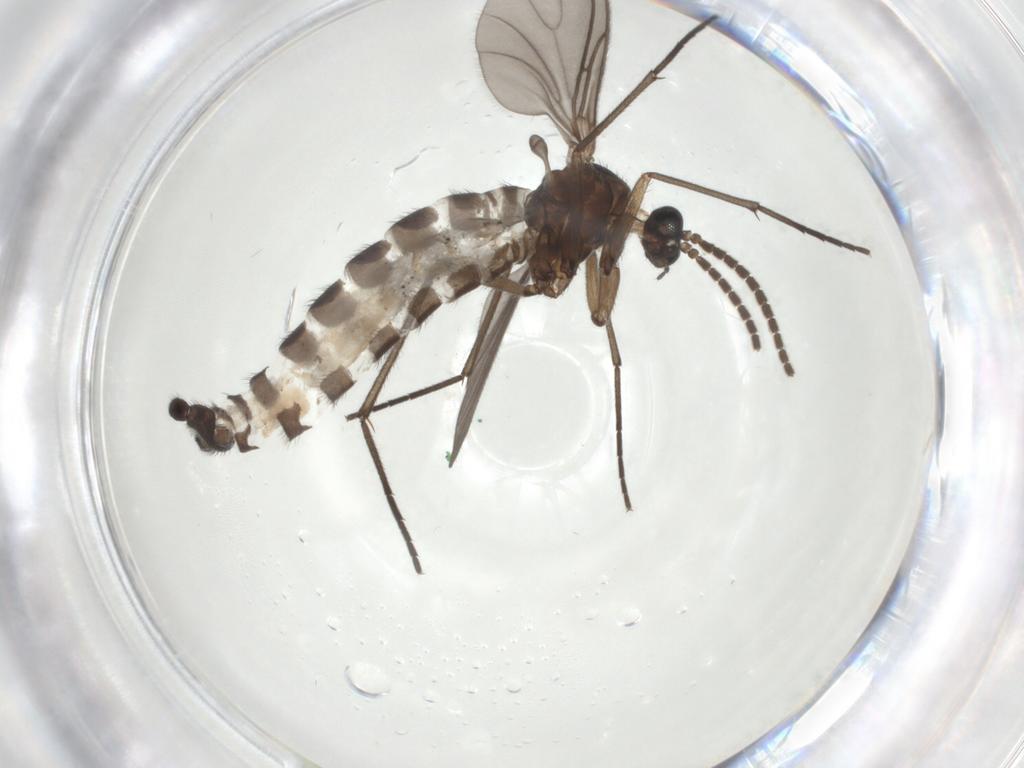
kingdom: Animalia
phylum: Arthropoda
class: Insecta
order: Diptera
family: Sciaridae
